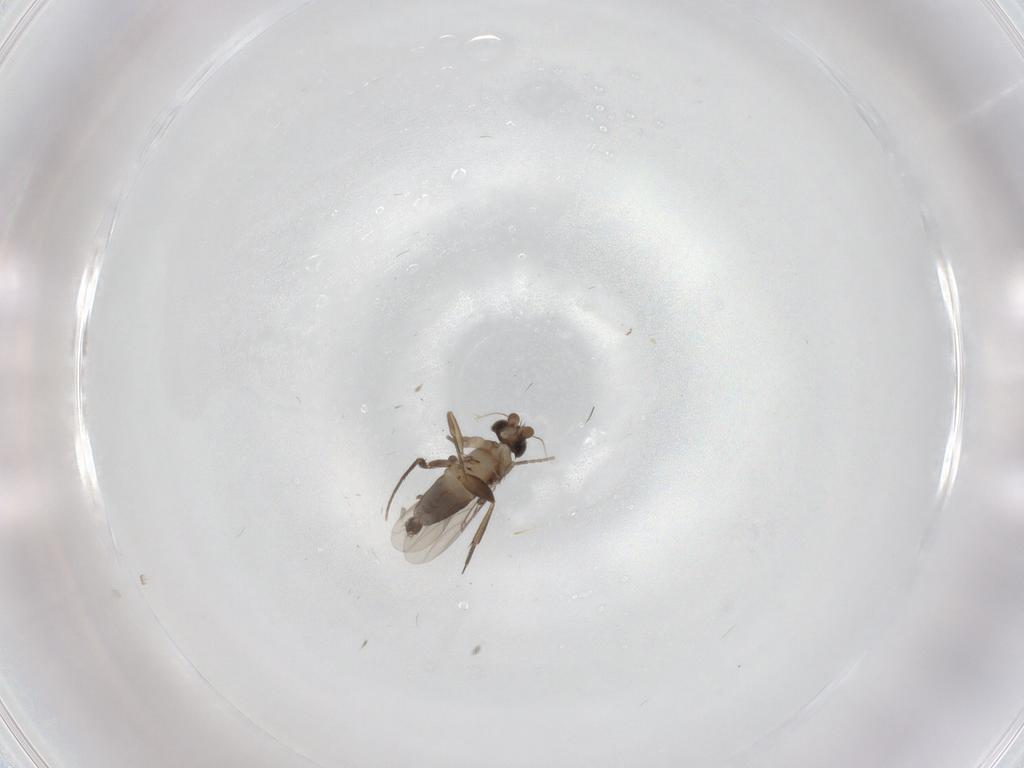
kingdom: Animalia
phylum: Arthropoda
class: Insecta
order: Diptera
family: Phoridae
